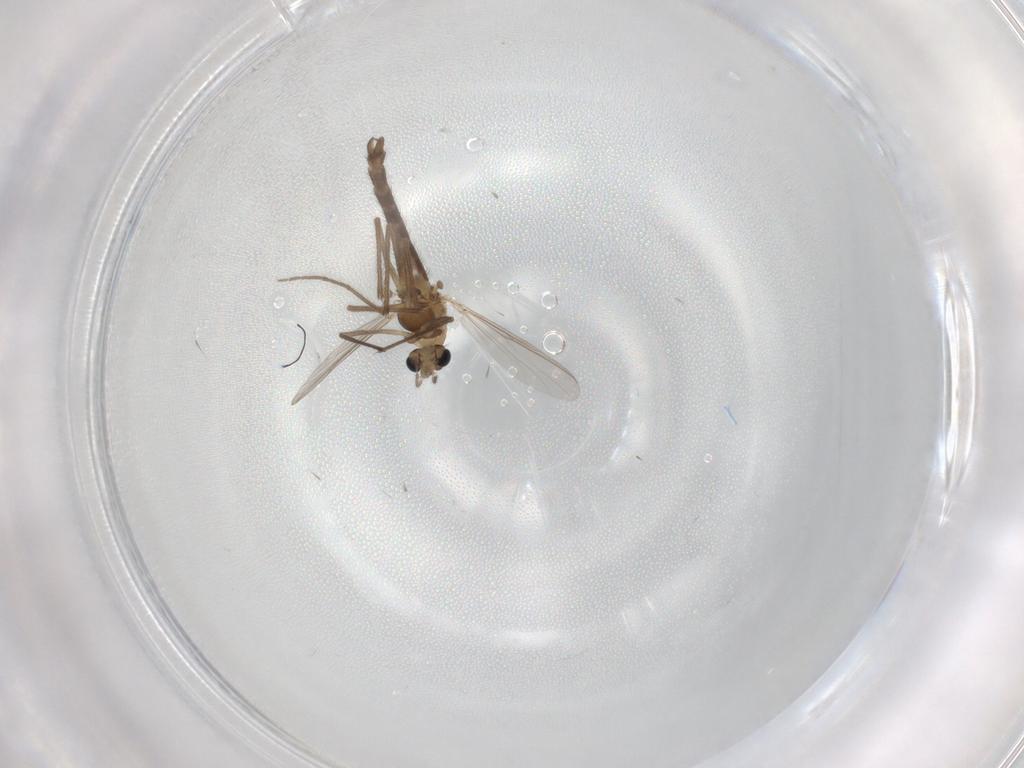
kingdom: Animalia
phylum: Arthropoda
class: Insecta
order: Diptera
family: Chironomidae
